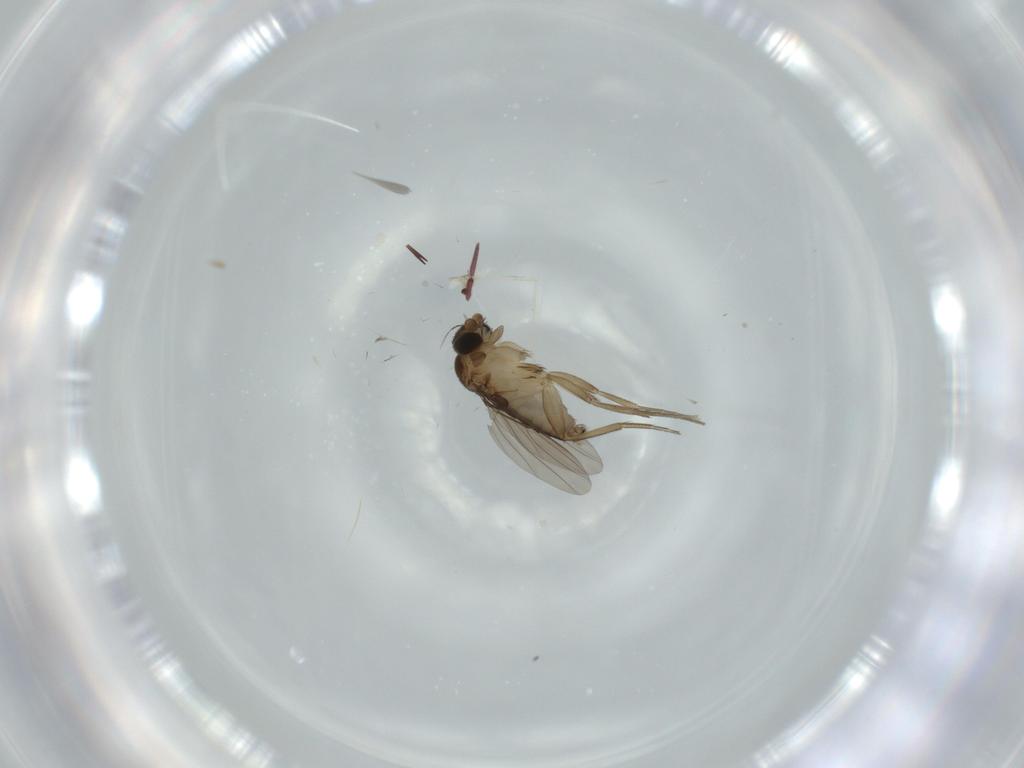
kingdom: Animalia
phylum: Arthropoda
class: Insecta
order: Diptera
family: Cecidomyiidae
